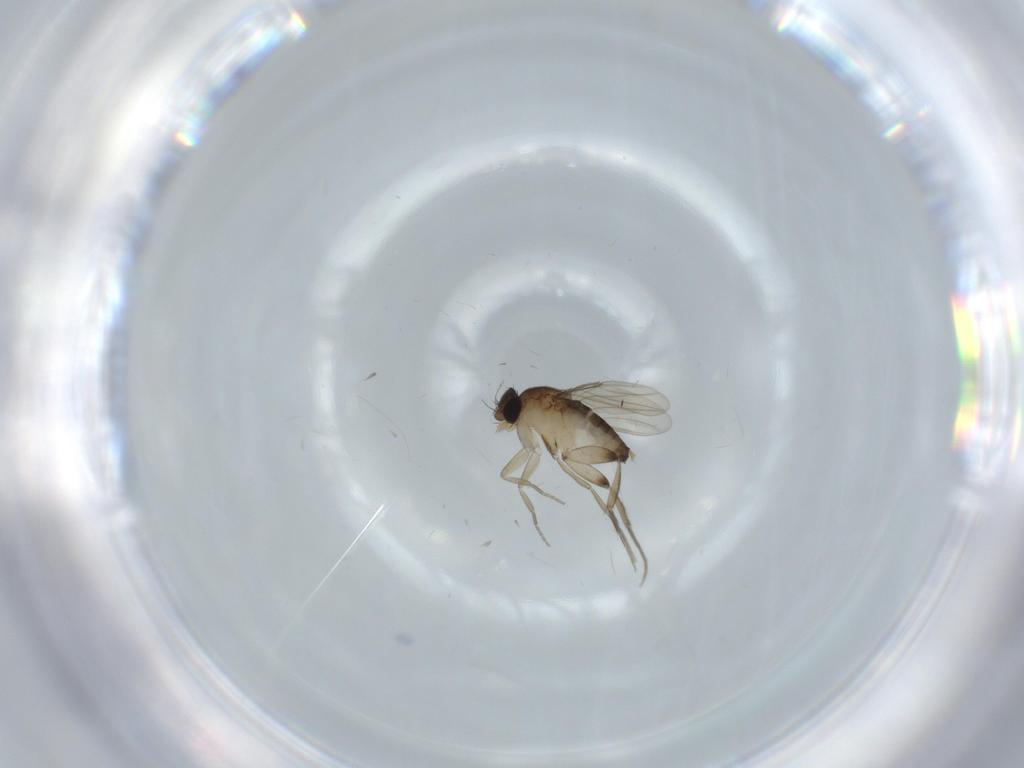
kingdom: Animalia
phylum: Arthropoda
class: Insecta
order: Diptera
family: Phoridae
